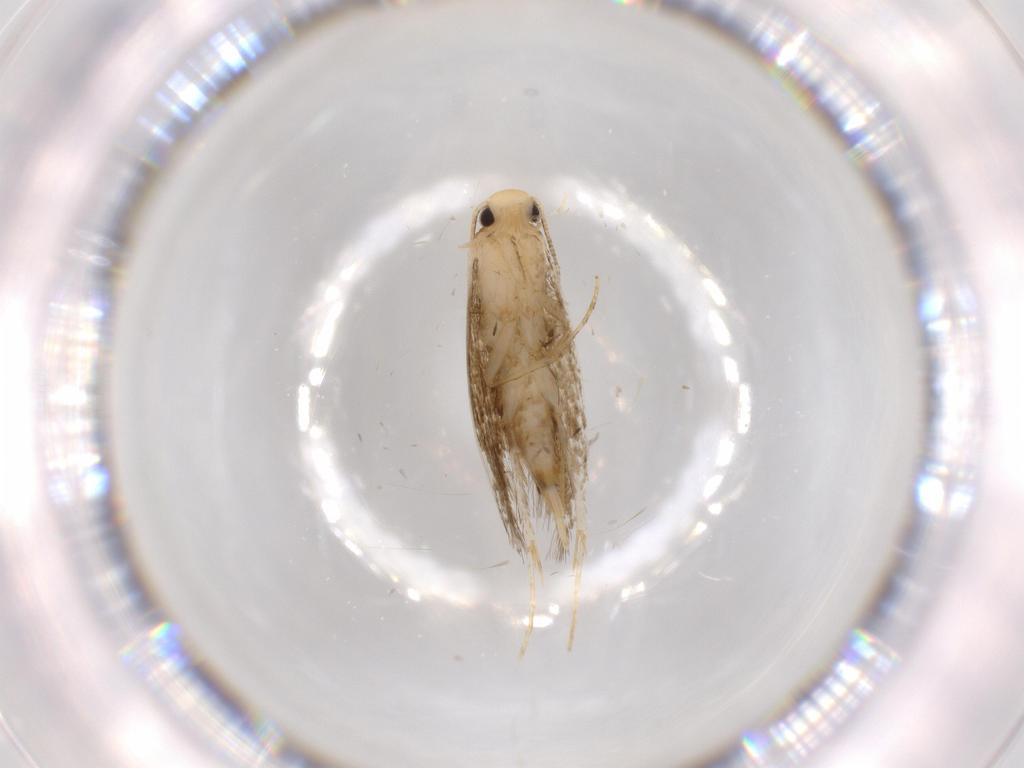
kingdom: Animalia
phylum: Arthropoda
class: Insecta
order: Lepidoptera
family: Tineidae
